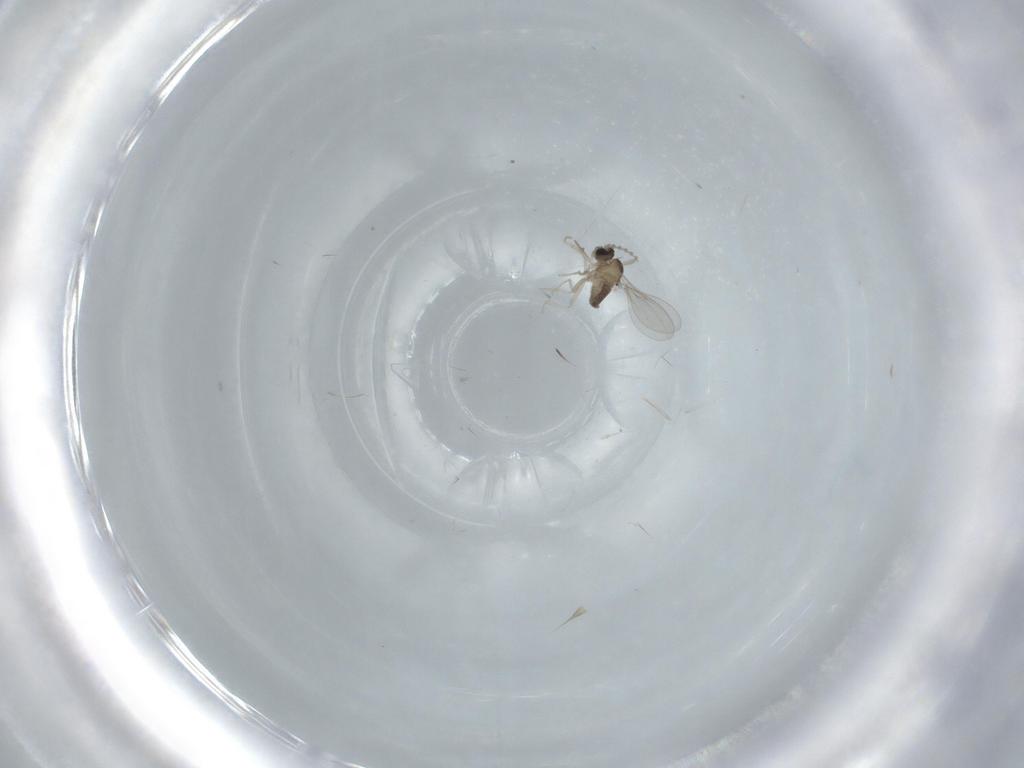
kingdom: Animalia
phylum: Arthropoda
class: Insecta
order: Diptera
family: Cecidomyiidae
